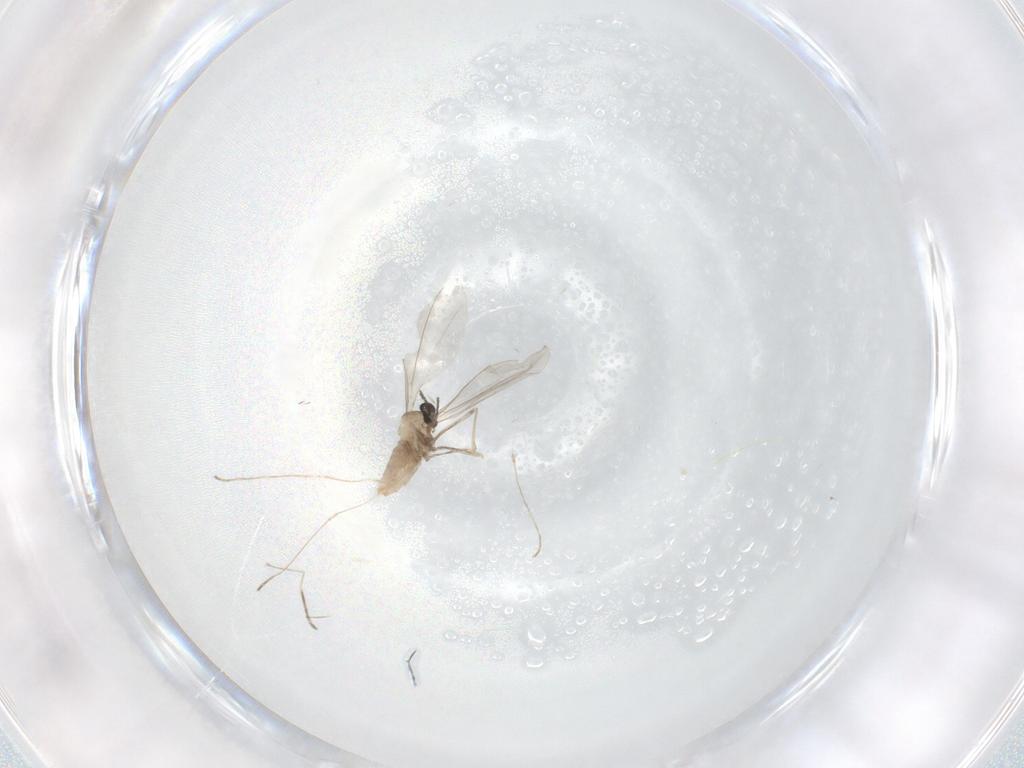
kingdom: Animalia
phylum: Arthropoda
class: Insecta
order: Diptera
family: Cecidomyiidae
